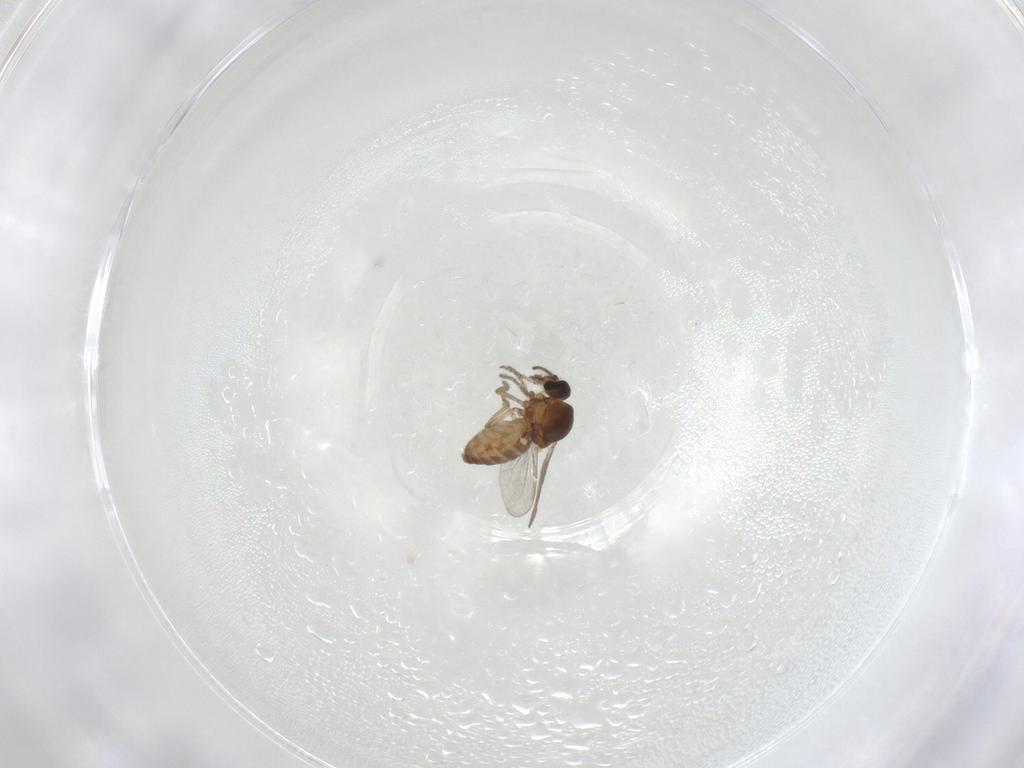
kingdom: Animalia
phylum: Arthropoda
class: Insecta
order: Diptera
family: Ceratopogonidae
